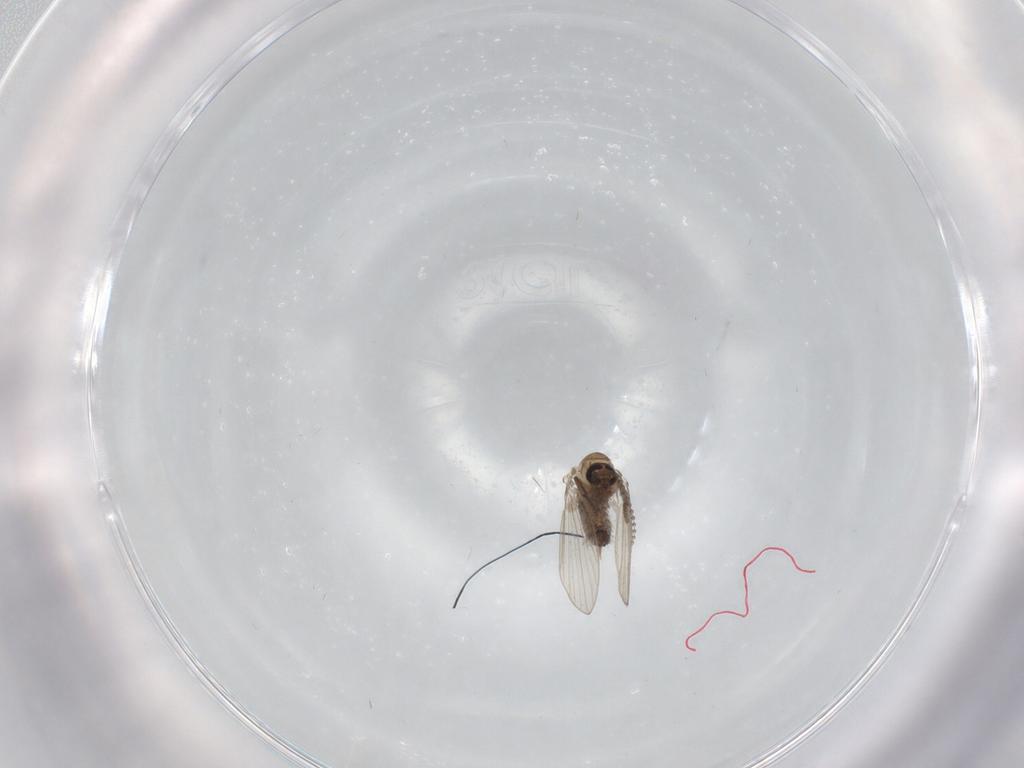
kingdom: Animalia
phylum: Arthropoda
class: Insecta
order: Diptera
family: Psychodidae
